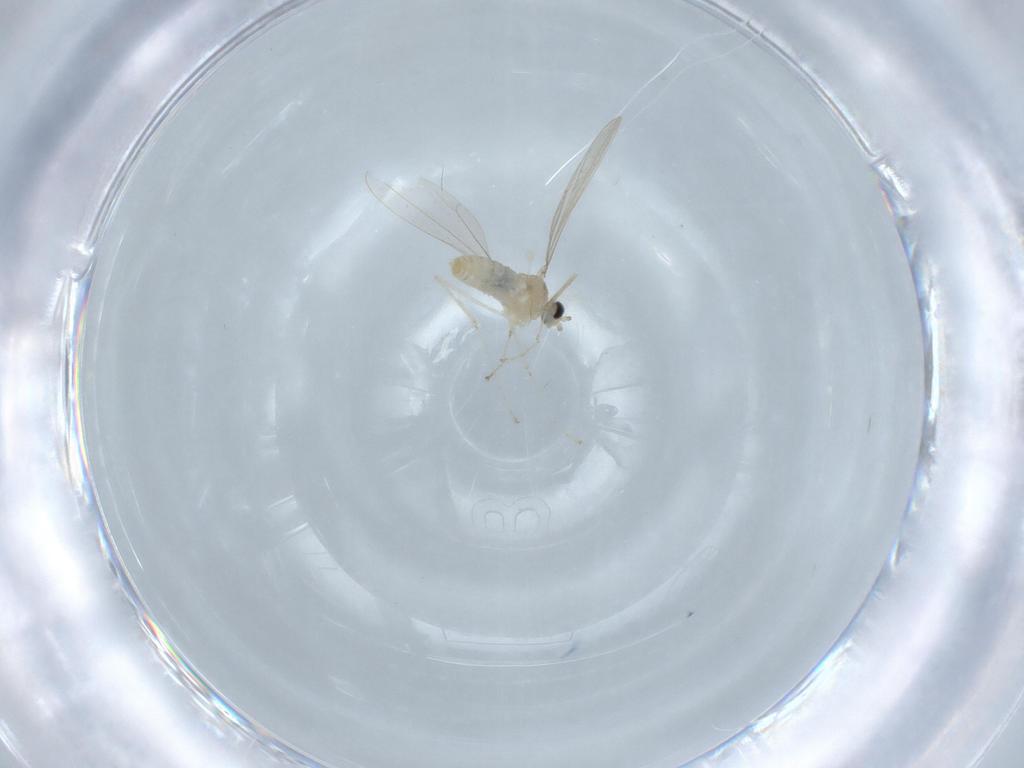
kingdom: Animalia
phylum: Arthropoda
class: Insecta
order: Diptera
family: Cecidomyiidae
